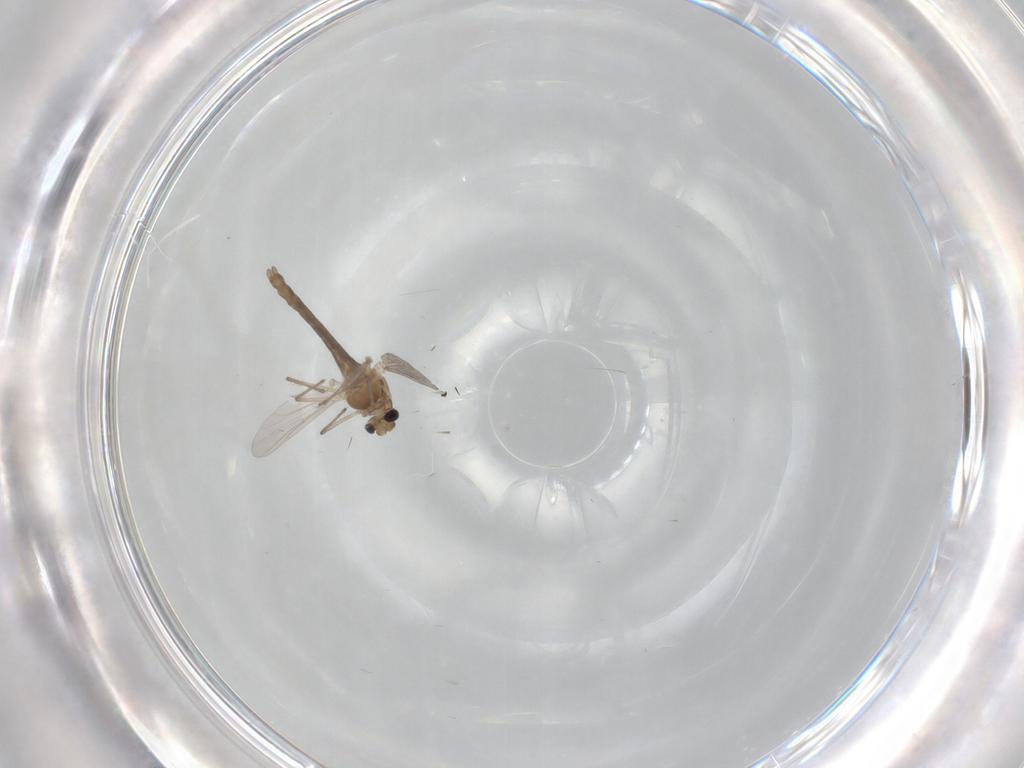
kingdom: Animalia
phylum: Arthropoda
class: Insecta
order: Diptera
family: Chironomidae
